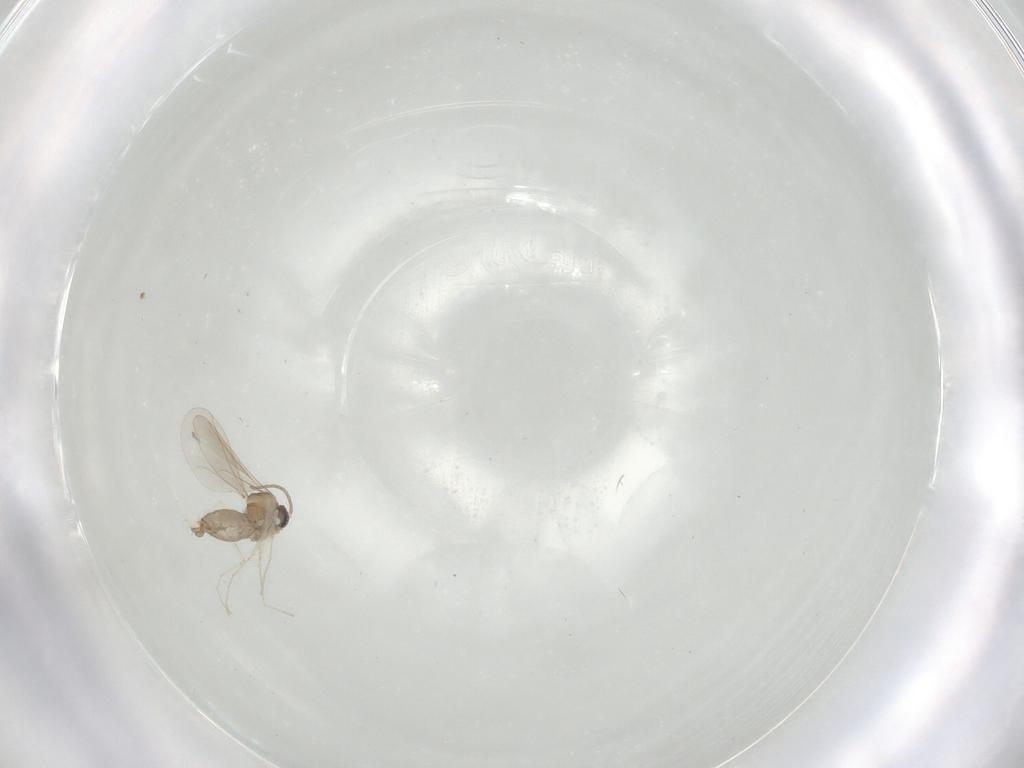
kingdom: Animalia
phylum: Arthropoda
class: Insecta
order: Diptera
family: Cecidomyiidae
